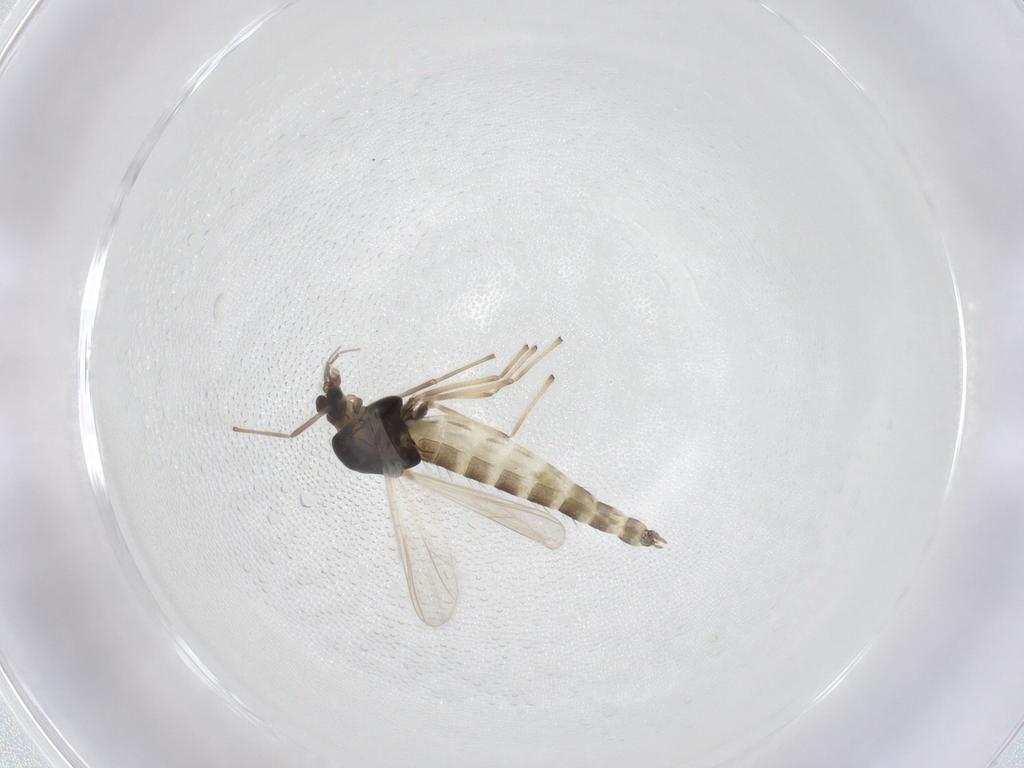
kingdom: Animalia
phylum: Arthropoda
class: Insecta
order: Diptera
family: Chironomidae
